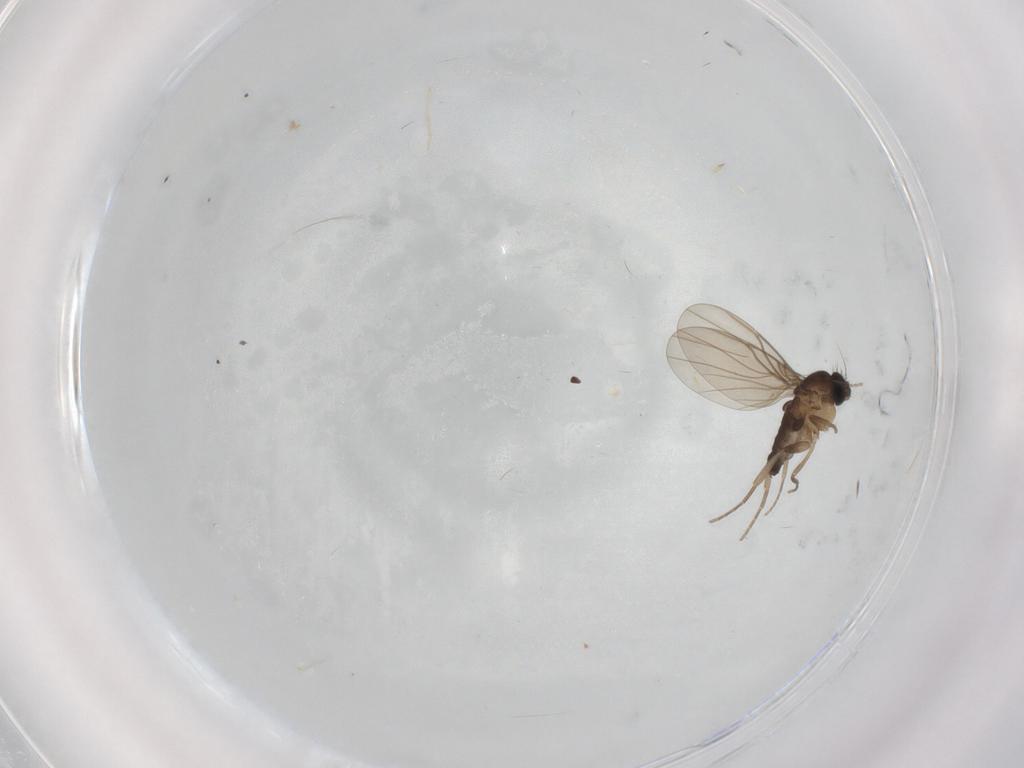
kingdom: Animalia
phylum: Arthropoda
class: Insecta
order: Diptera
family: Phoridae
